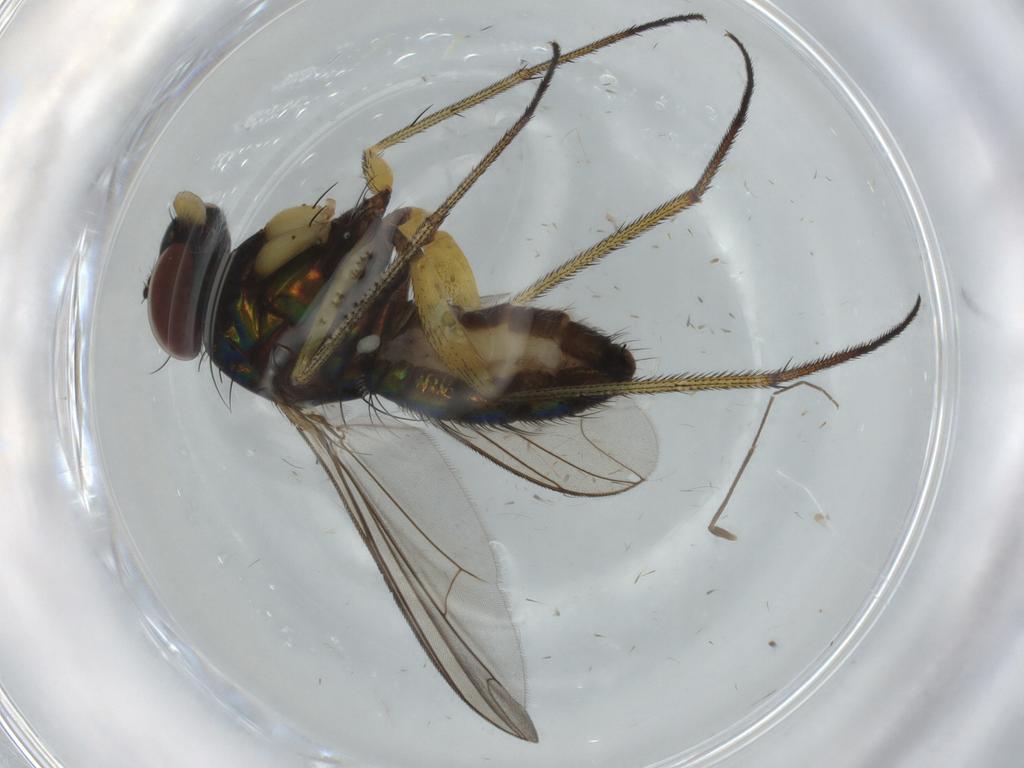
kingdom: Animalia
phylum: Arthropoda
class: Insecta
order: Diptera
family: Dolichopodidae
